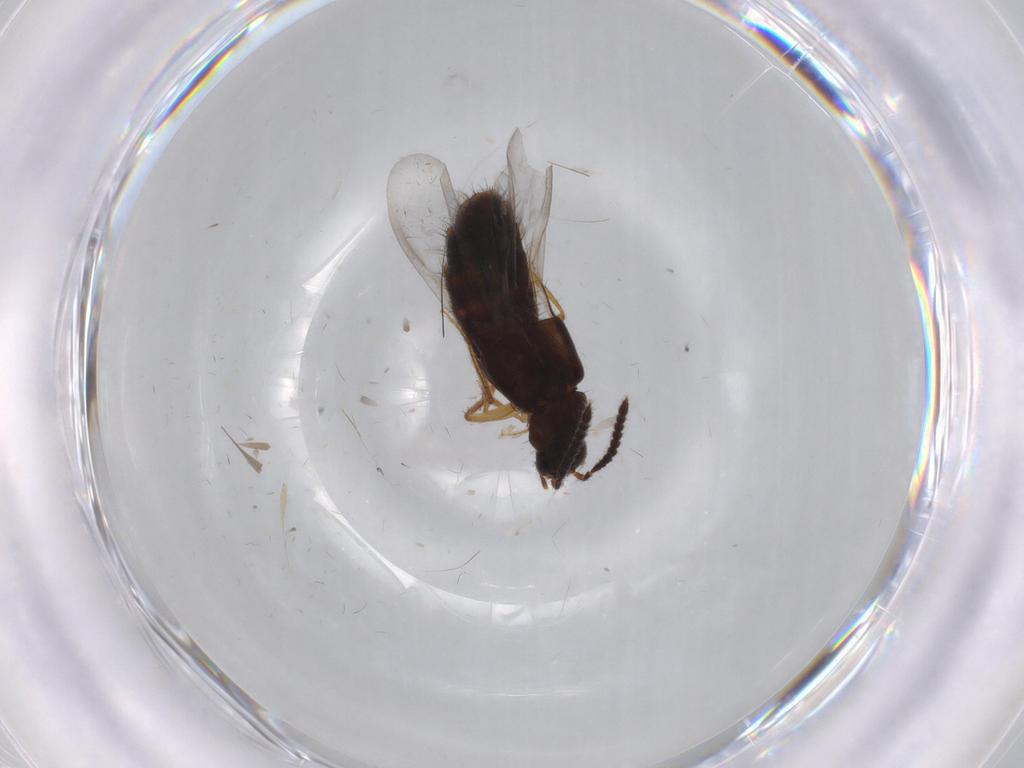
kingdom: Animalia
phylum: Arthropoda
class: Insecta
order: Coleoptera
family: Staphylinidae
